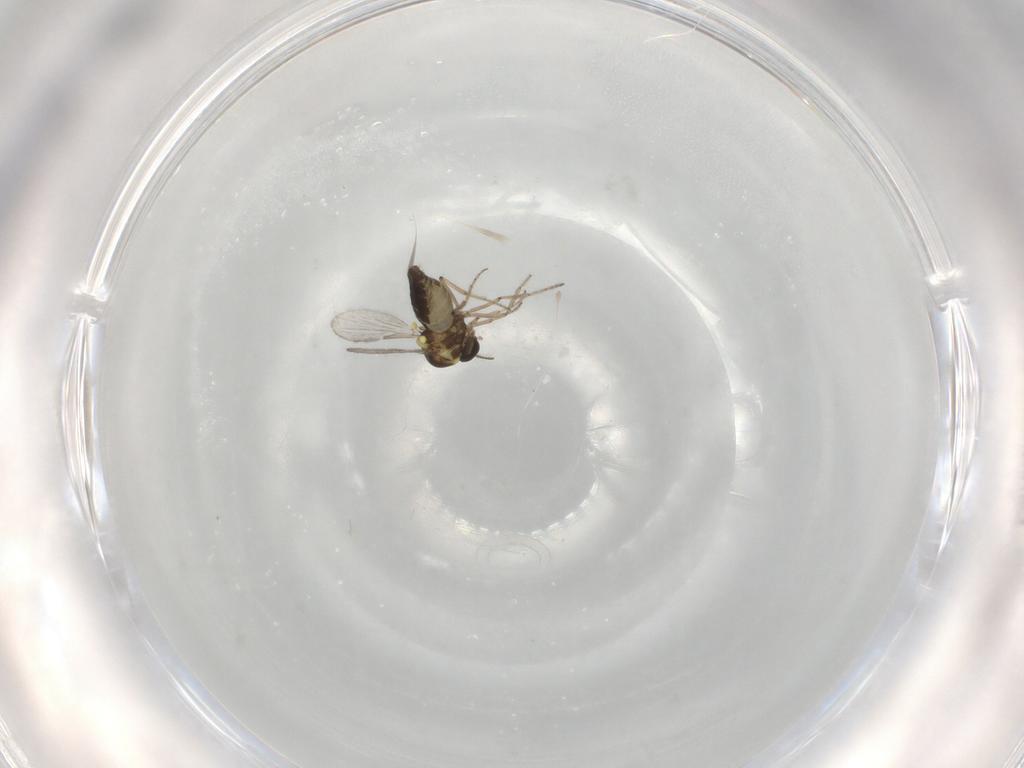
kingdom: Animalia
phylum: Arthropoda
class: Insecta
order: Diptera
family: Ceratopogonidae
